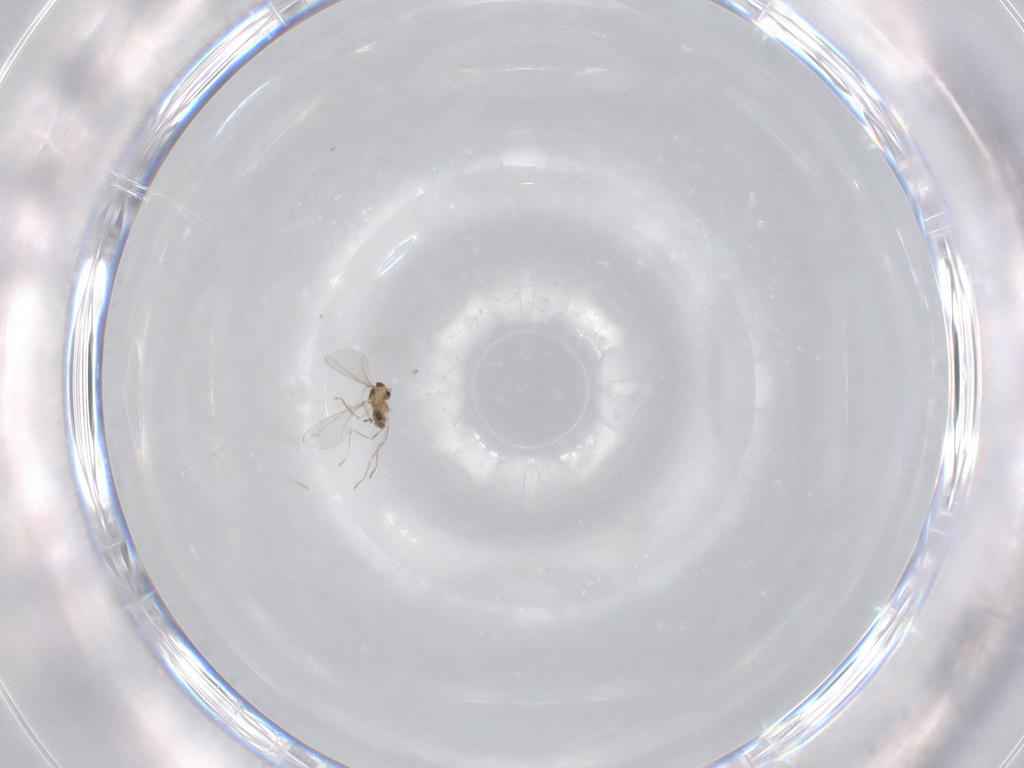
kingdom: Animalia
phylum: Arthropoda
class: Insecta
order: Diptera
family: Cecidomyiidae
